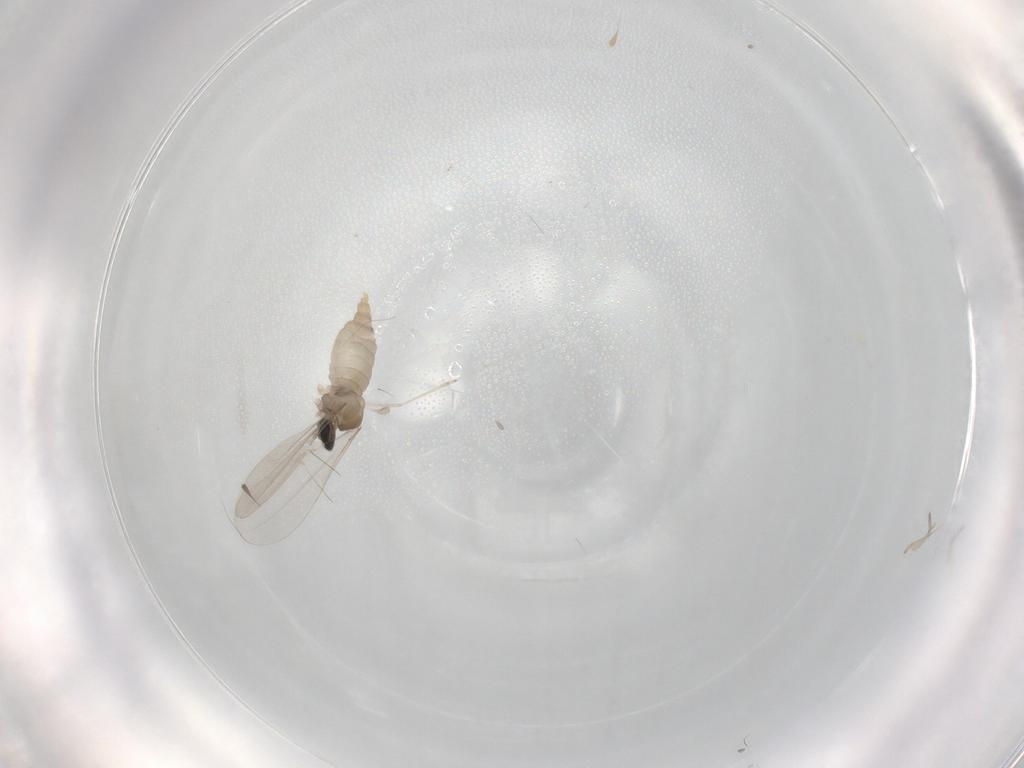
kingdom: Animalia
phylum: Arthropoda
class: Insecta
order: Diptera
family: Cecidomyiidae
